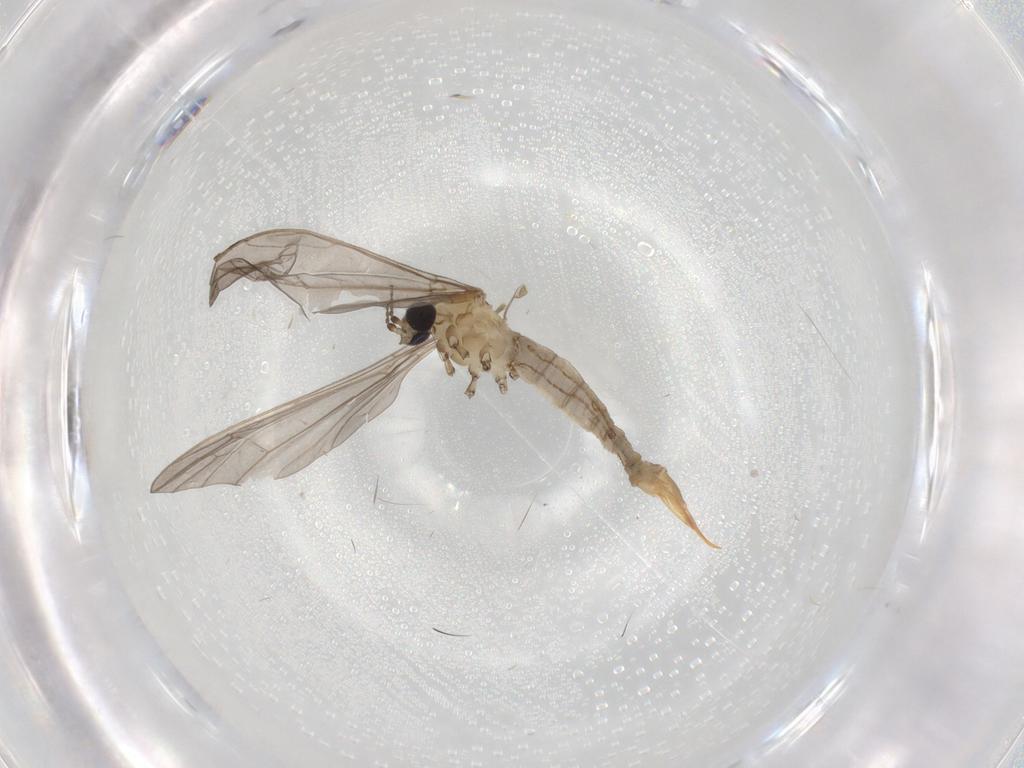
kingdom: Animalia
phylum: Arthropoda
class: Insecta
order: Diptera
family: Limoniidae
